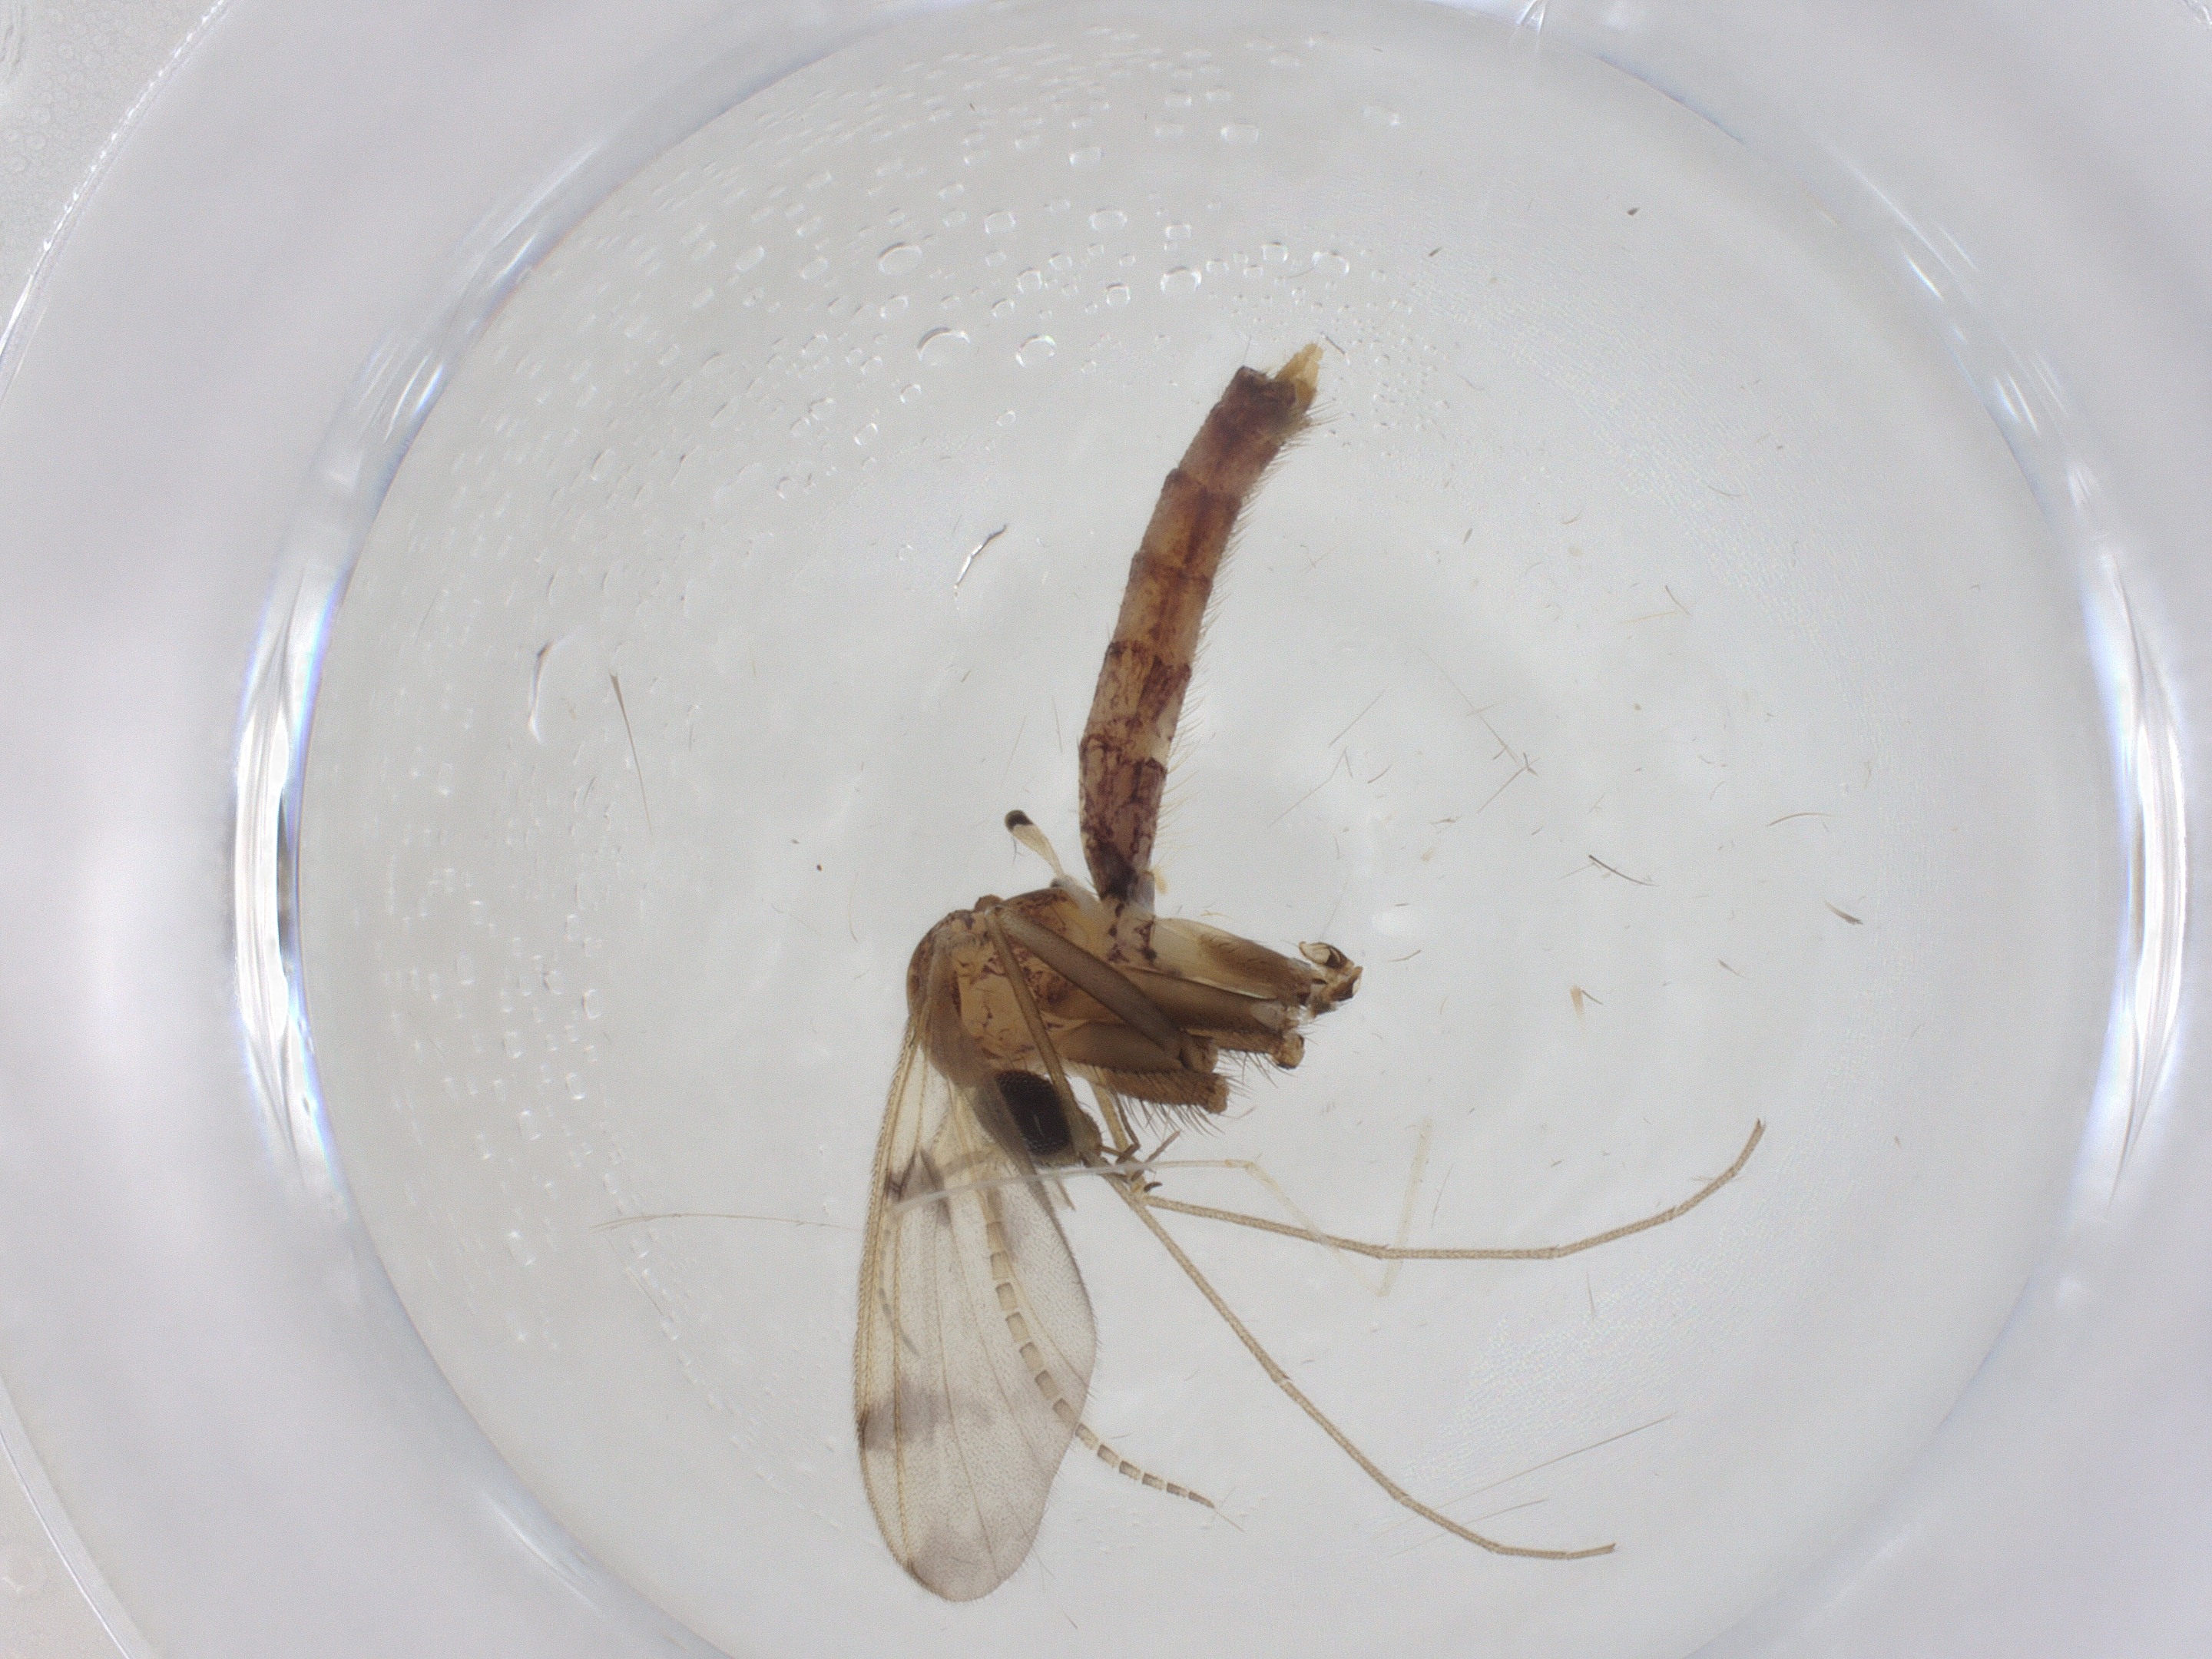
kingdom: Animalia
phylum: Arthropoda
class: Insecta
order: Diptera
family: Mycetophilidae
